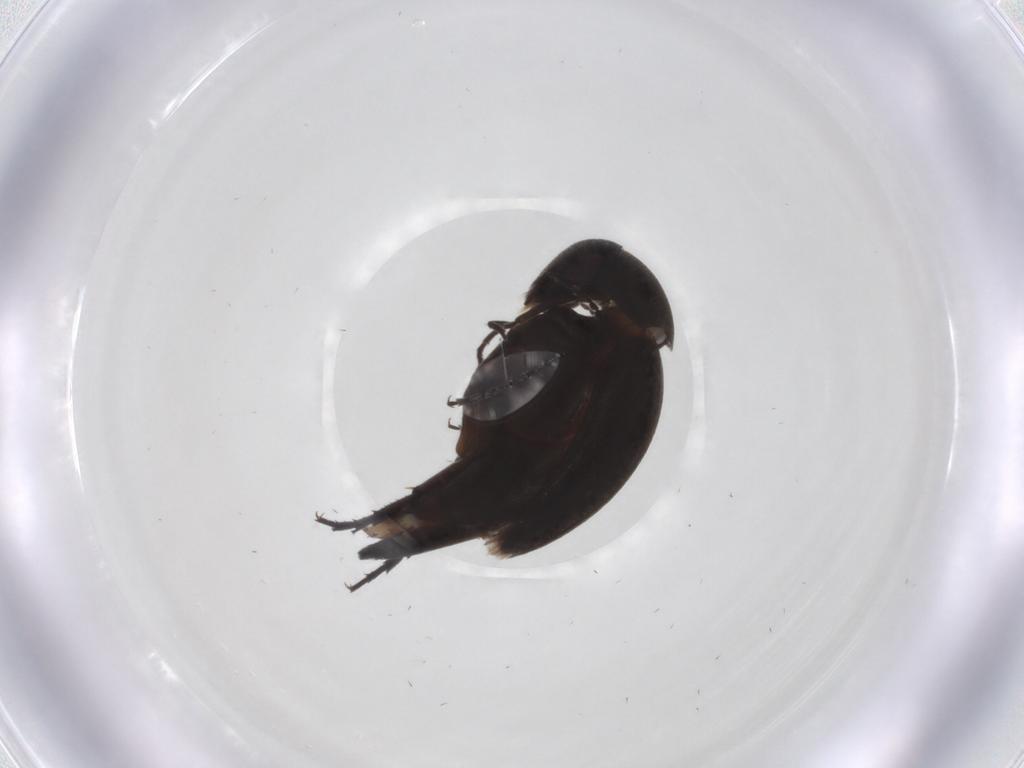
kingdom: Animalia
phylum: Arthropoda
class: Insecta
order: Coleoptera
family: Mordellidae
